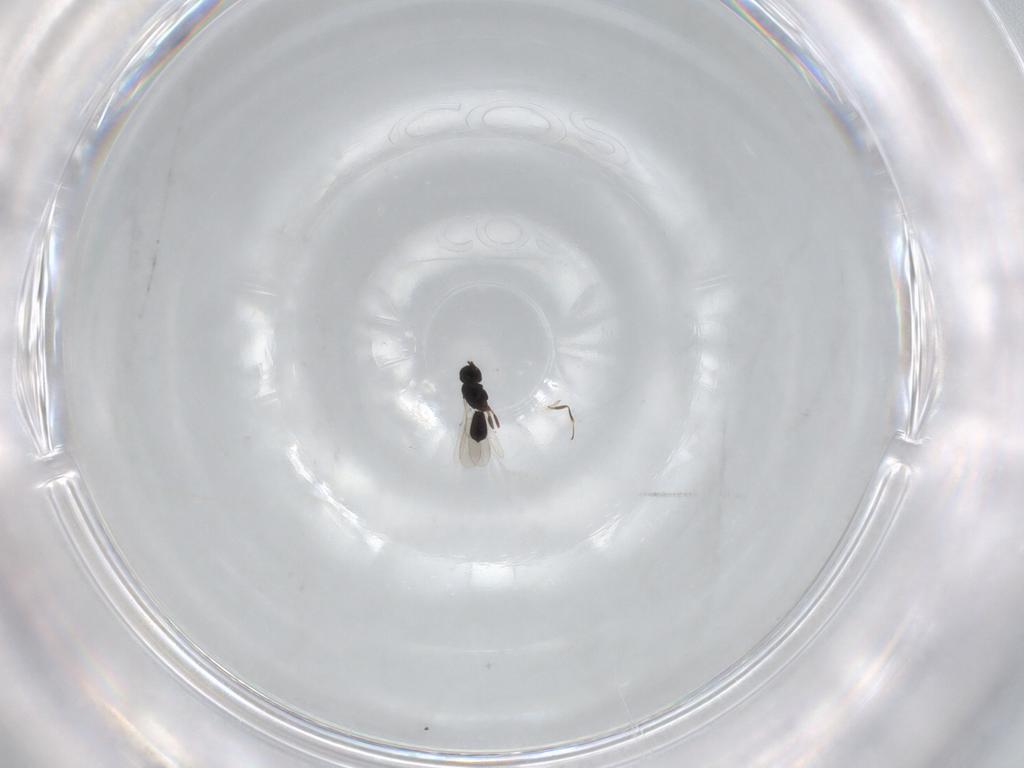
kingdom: Animalia
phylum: Arthropoda
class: Insecta
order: Hymenoptera
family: Scelionidae
